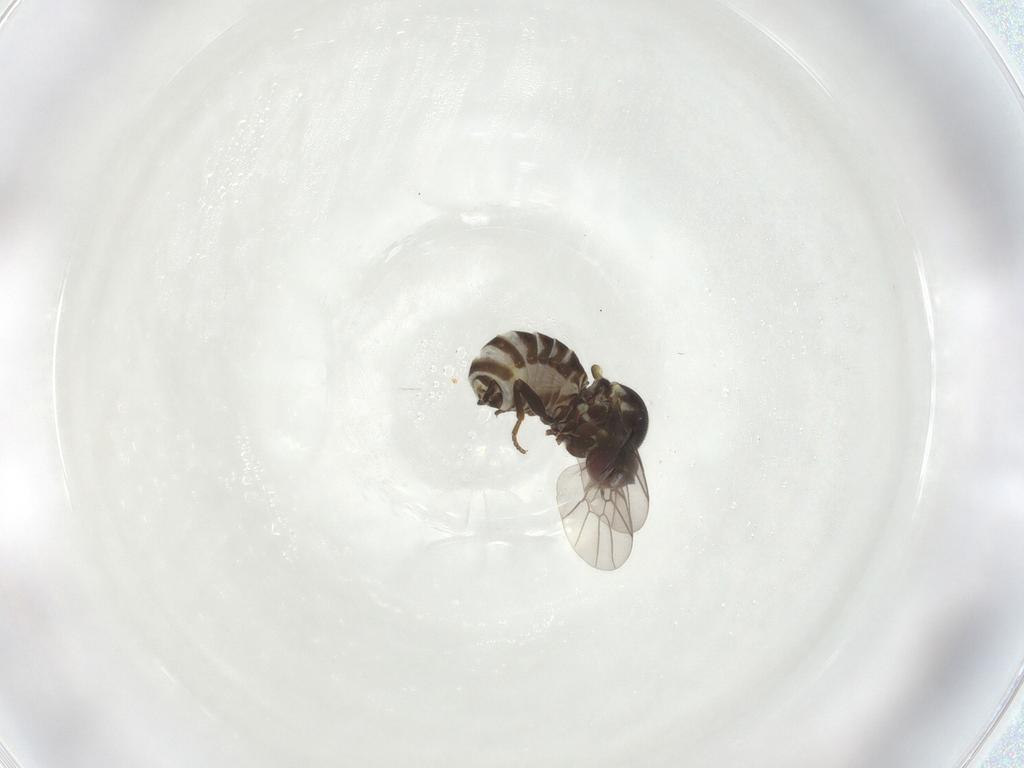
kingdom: Animalia
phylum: Arthropoda
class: Insecta
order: Diptera
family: Bombyliidae
